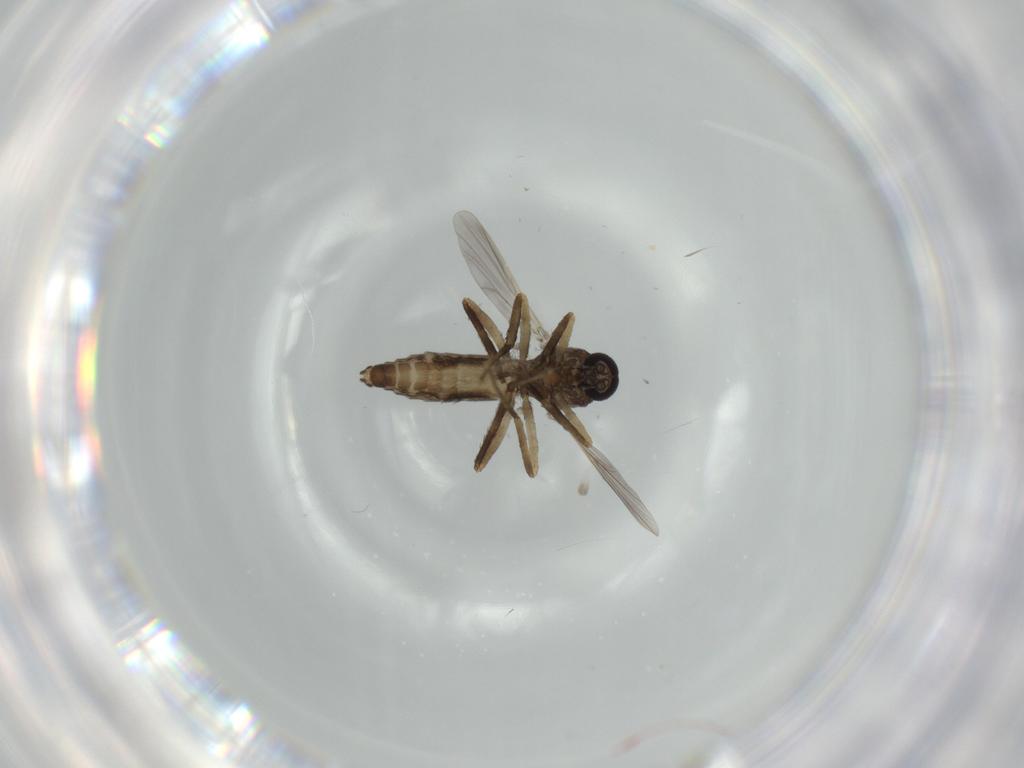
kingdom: Animalia
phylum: Arthropoda
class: Insecta
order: Diptera
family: Ceratopogonidae
